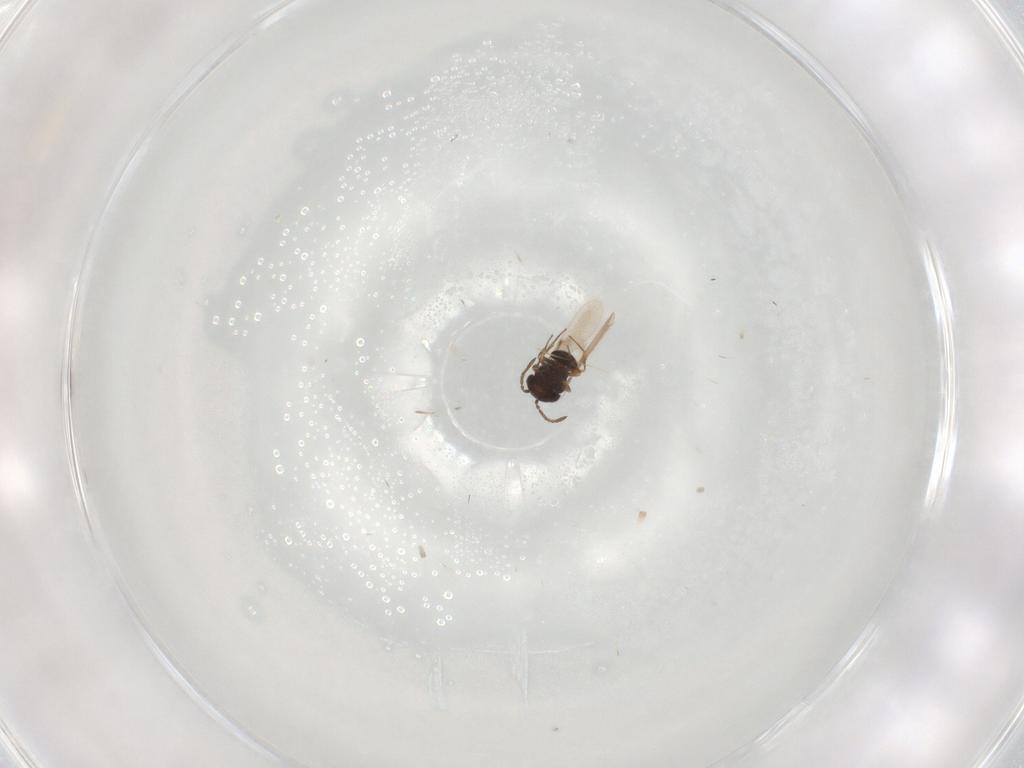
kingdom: Animalia
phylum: Arthropoda
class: Insecta
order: Hymenoptera
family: Scelionidae
